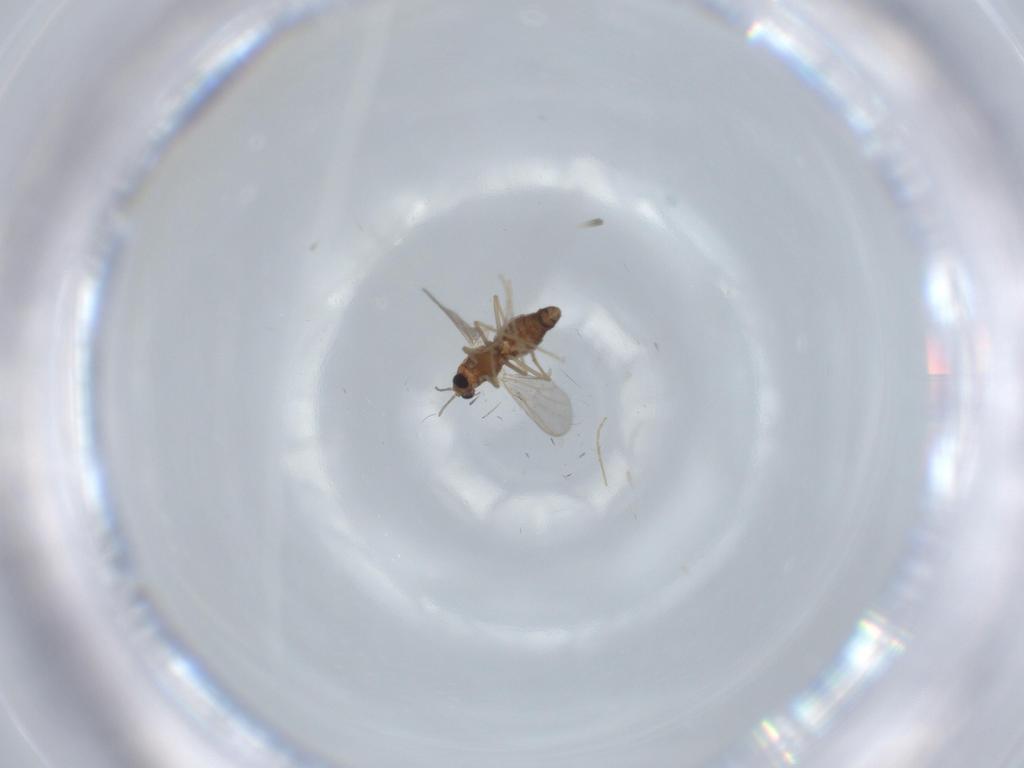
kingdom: Animalia
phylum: Arthropoda
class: Insecta
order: Diptera
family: Chironomidae
